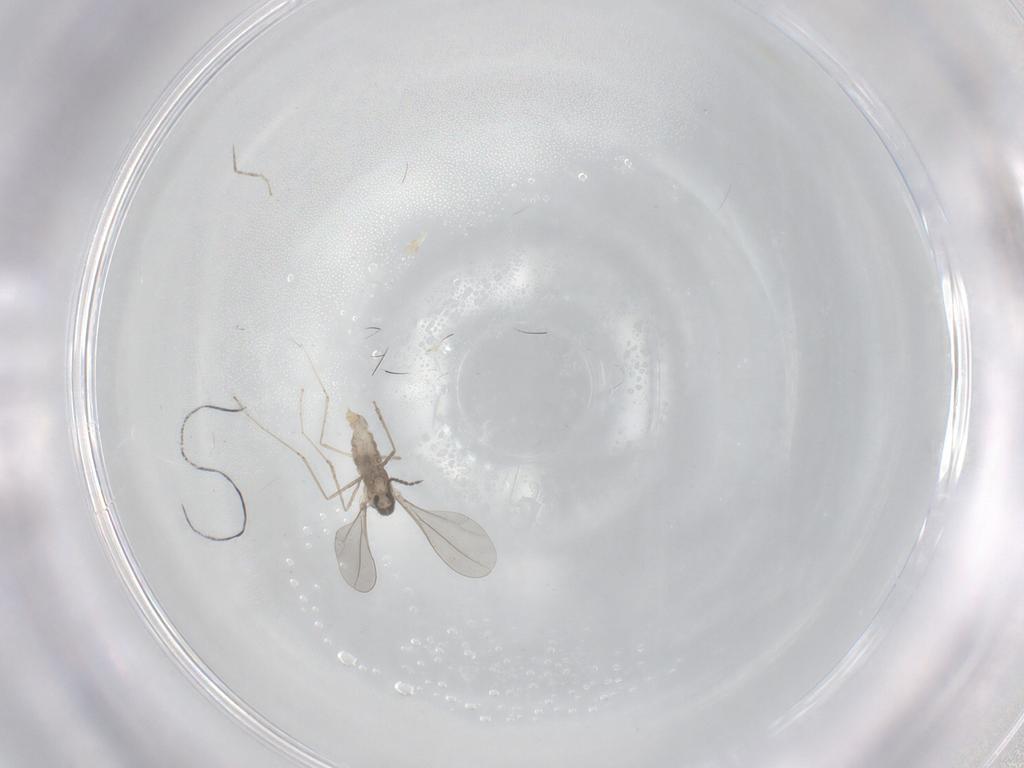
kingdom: Animalia
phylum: Arthropoda
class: Insecta
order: Diptera
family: Cecidomyiidae
